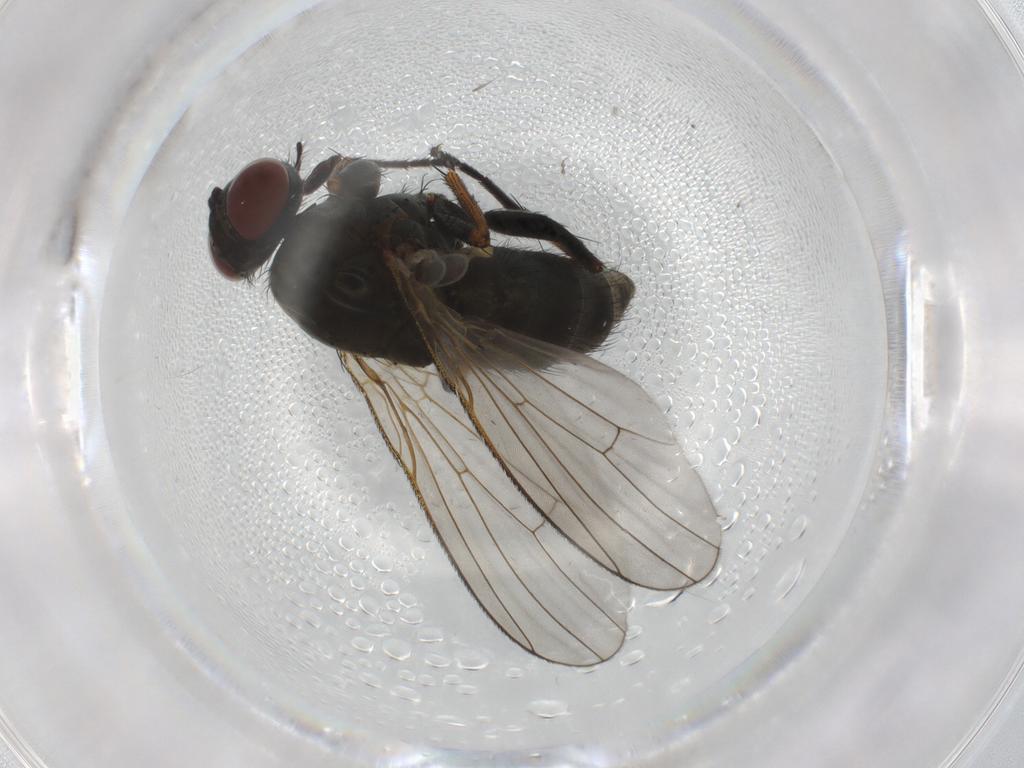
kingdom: Animalia
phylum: Arthropoda
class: Insecta
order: Diptera
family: Muscidae
